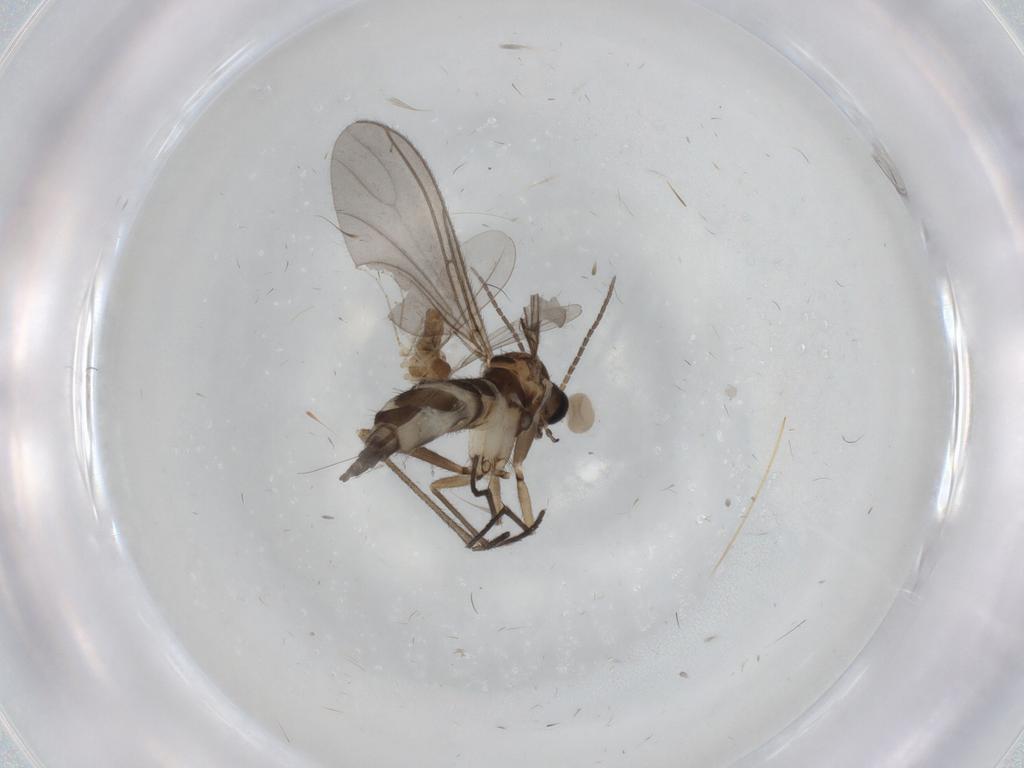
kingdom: Animalia
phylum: Arthropoda
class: Insecta
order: Diptera
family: Sciaridae
